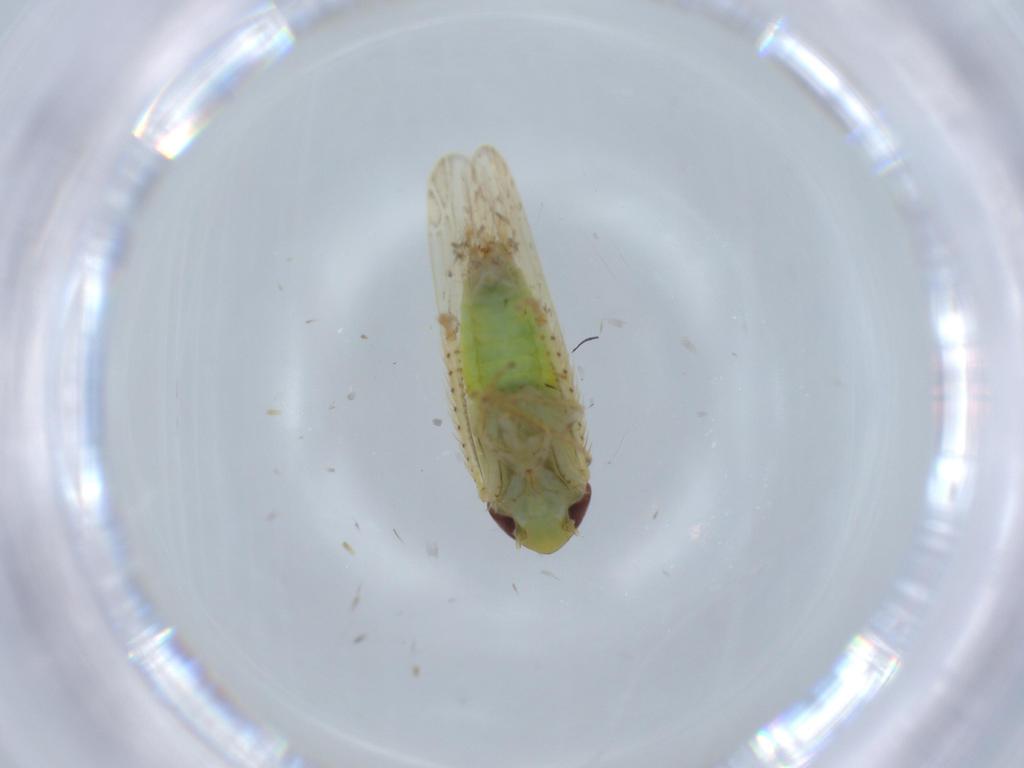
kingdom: Animalia
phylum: Arthropoda
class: Insecta
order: Hemiptera
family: Cicadellidae
